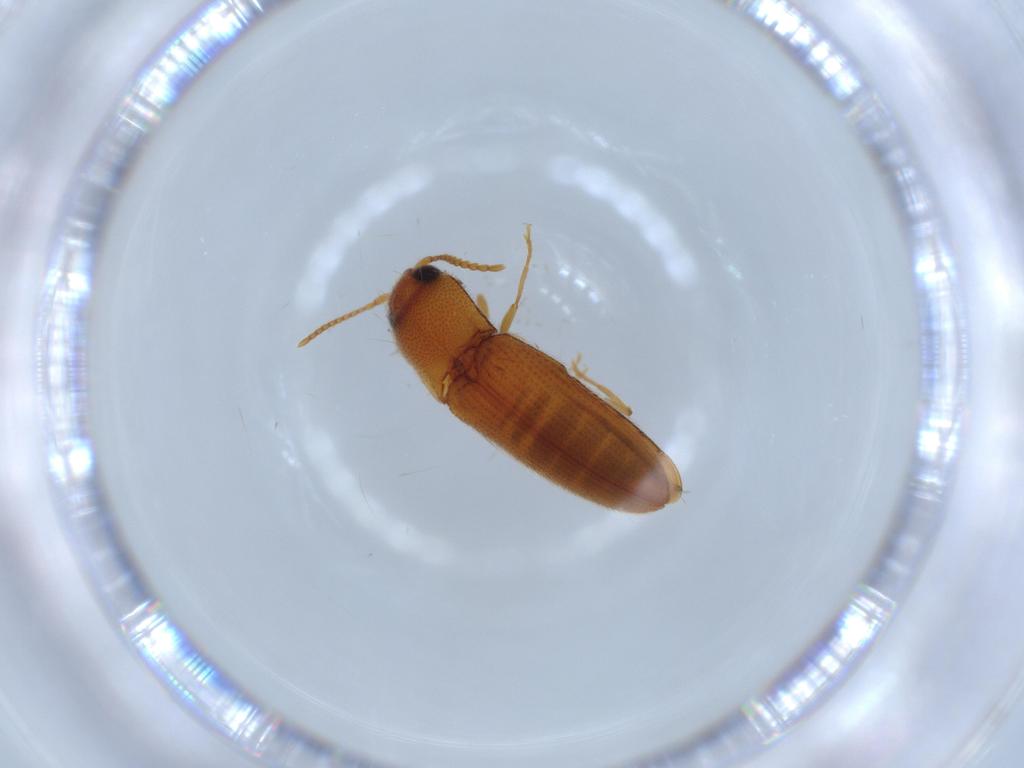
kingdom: Animalia
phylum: Arthropoda
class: Insecta
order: Coleoptera
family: Elateridae
